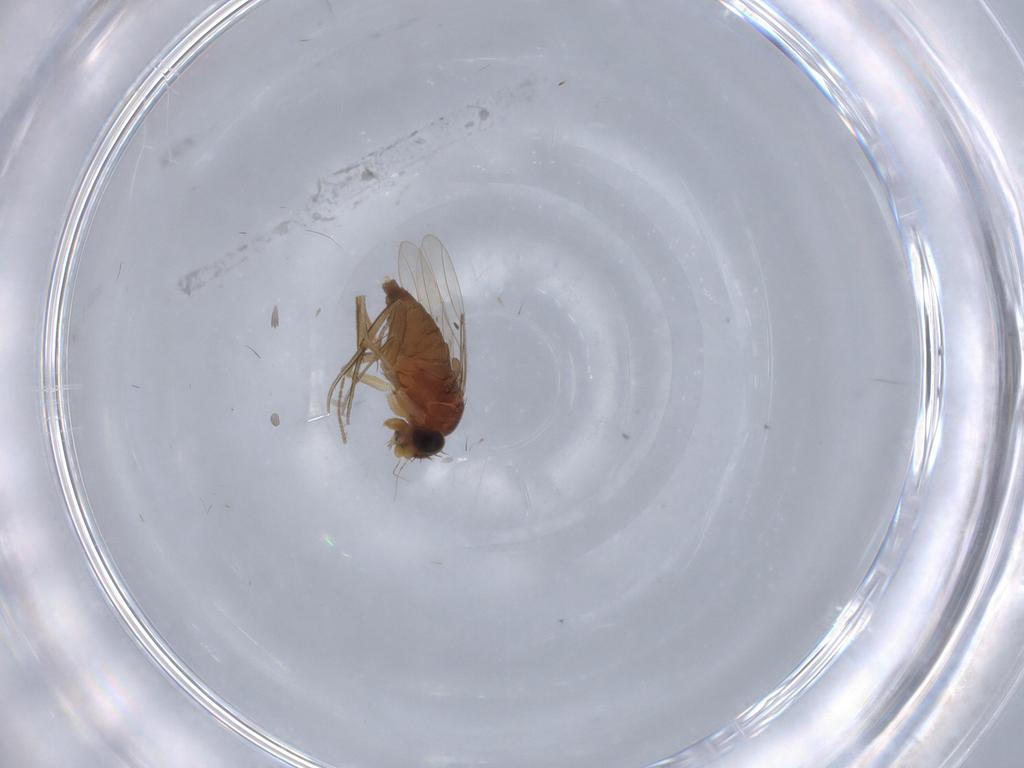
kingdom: Animalia
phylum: Arthropoda
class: Insecta
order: Diptera
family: Phoridae
